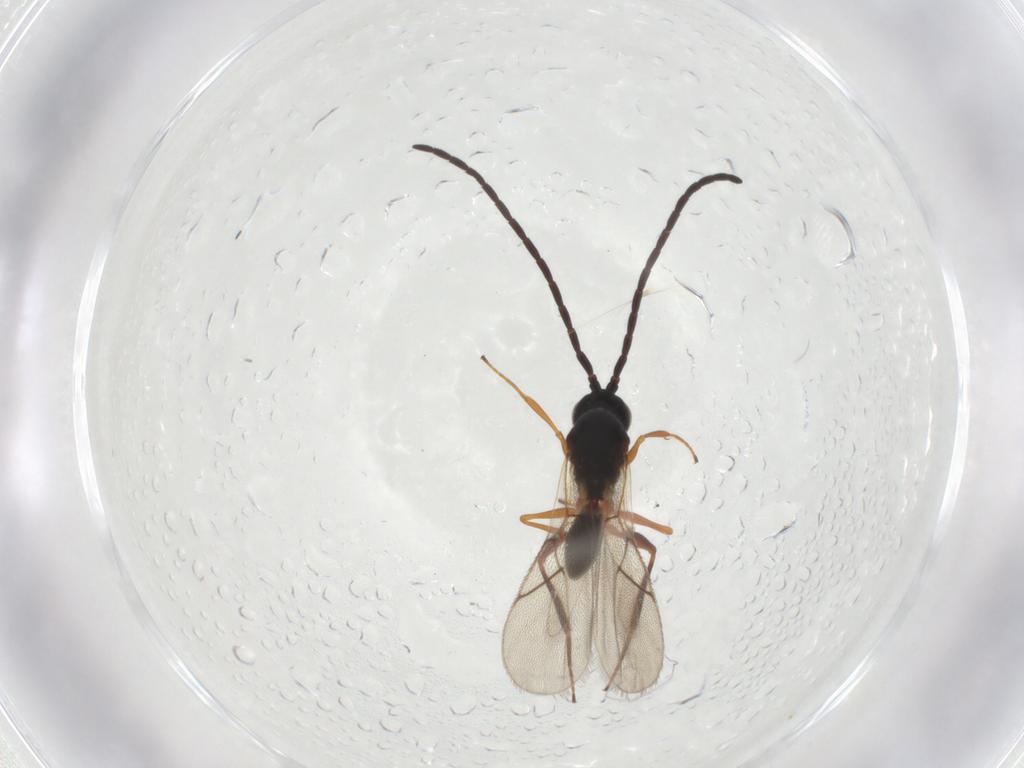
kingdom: Animalia
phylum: Arthropoda
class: Insecta
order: Hymenoptera
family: Figitidae
